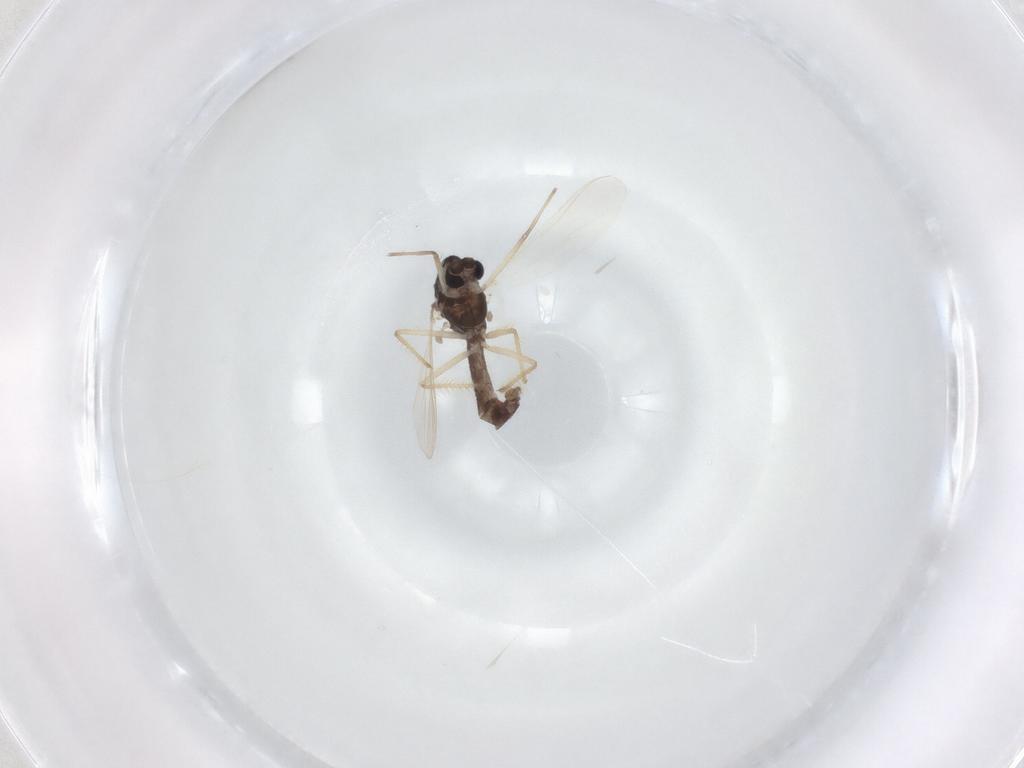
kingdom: Animalia
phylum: Arthropoda
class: Insecta
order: Diptera
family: Chironomidae
